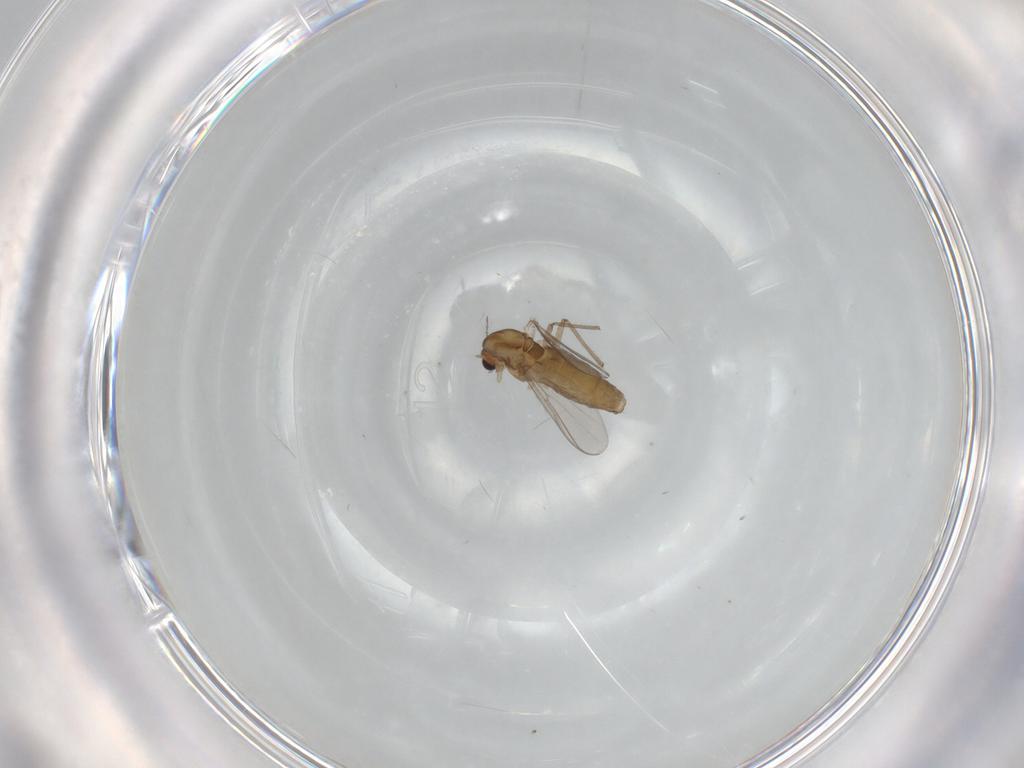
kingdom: Animalia
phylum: Arthropoda
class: Insecta
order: Diptera
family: Chironomidae
